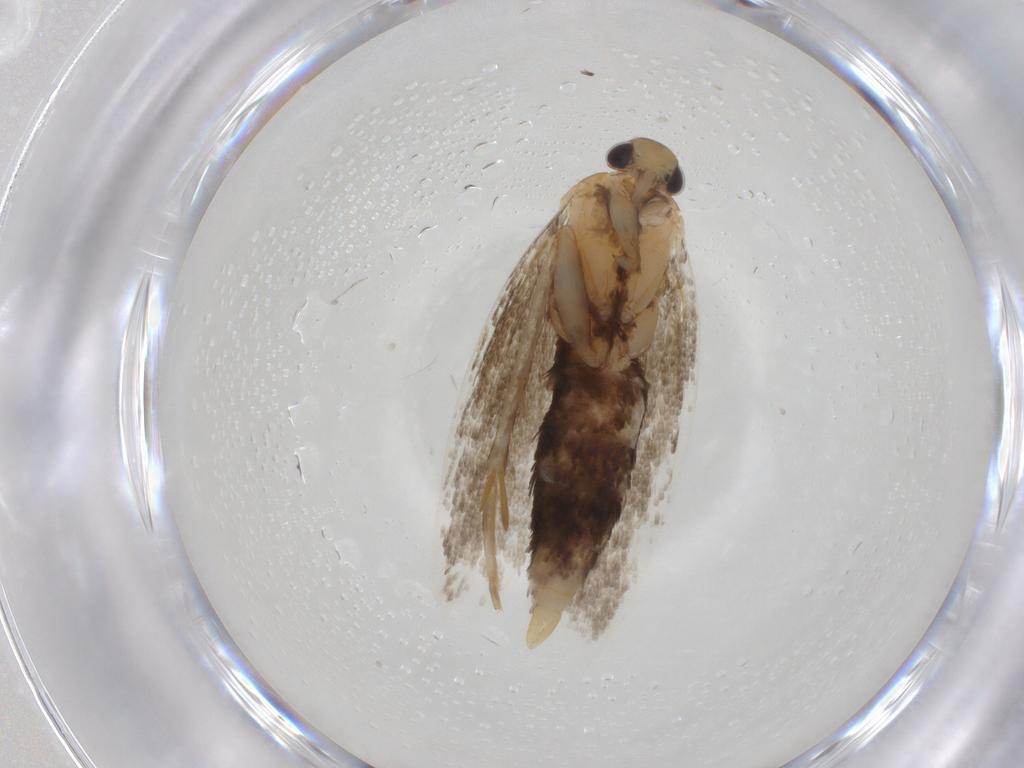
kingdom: Animalia
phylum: Arthropoda
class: Insecta
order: Lepidoptera
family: Autostichidae
